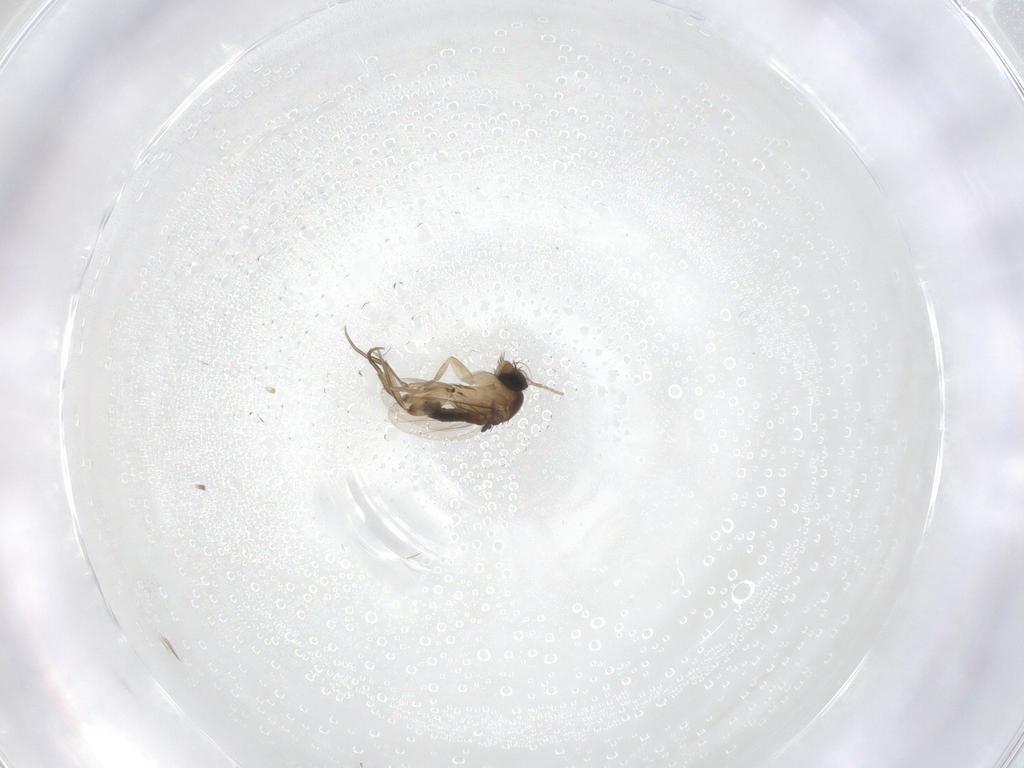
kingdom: Animalia
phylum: Arthropoda
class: Insecta
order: Diptera
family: Phoridae
